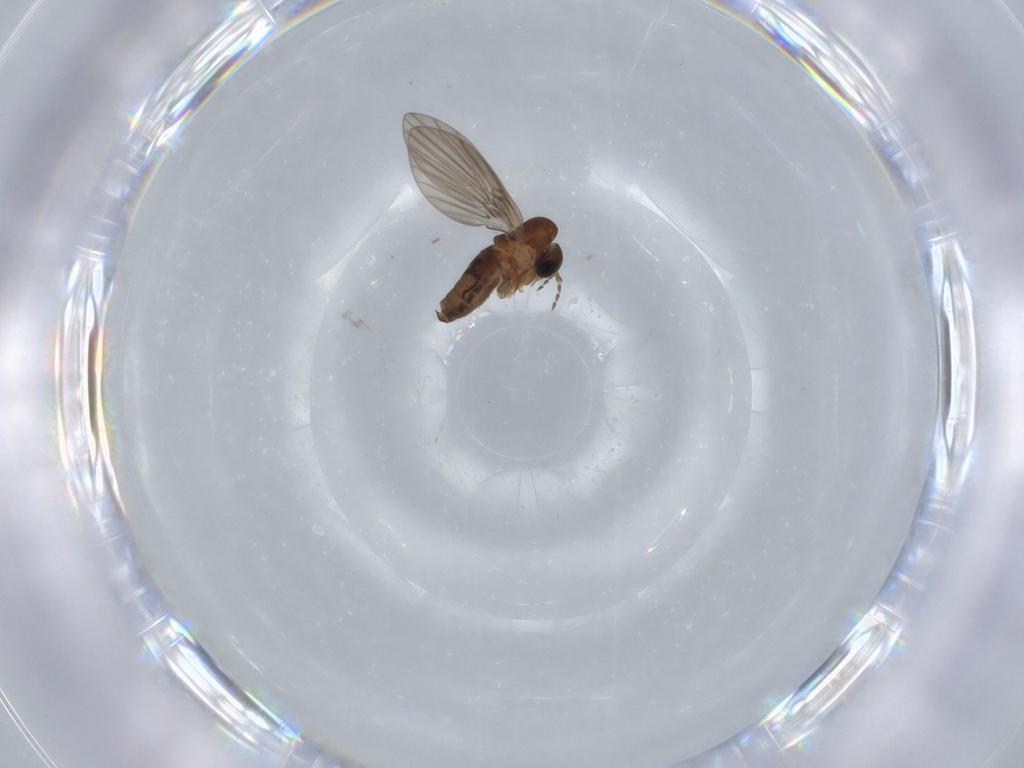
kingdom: Animalia
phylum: Arthropoda
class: Insecta
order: Diptera
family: Psychodidae
